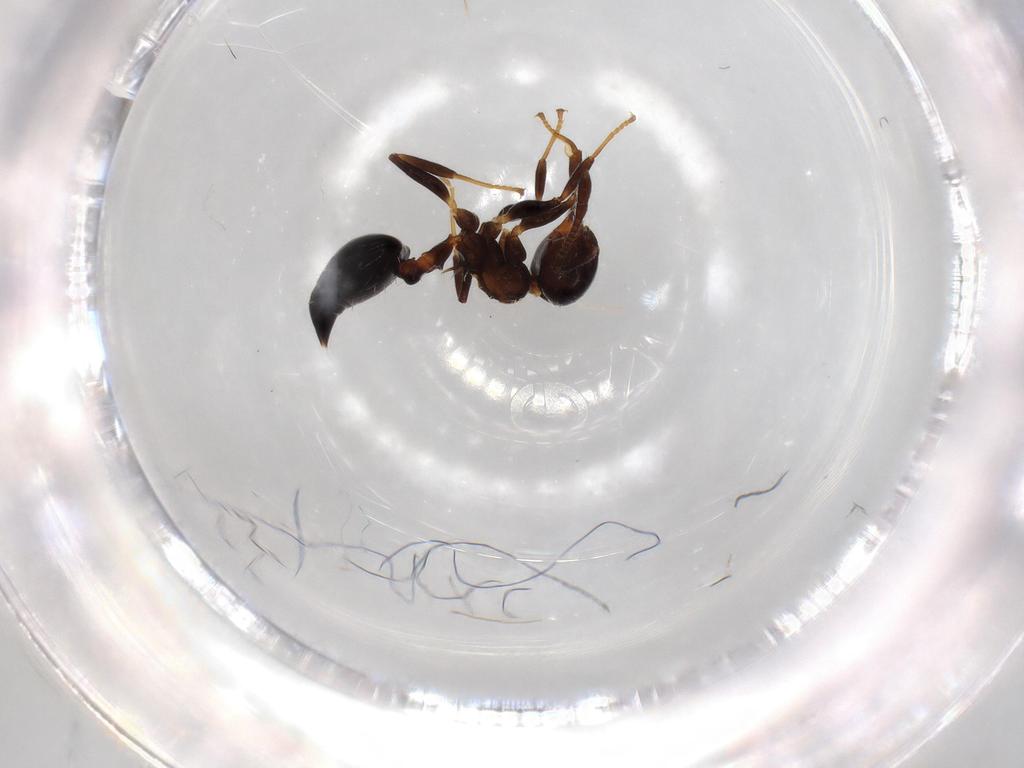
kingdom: Animalia
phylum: Arthropoda
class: Insecta
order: Hymenoptera
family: Formicidae
